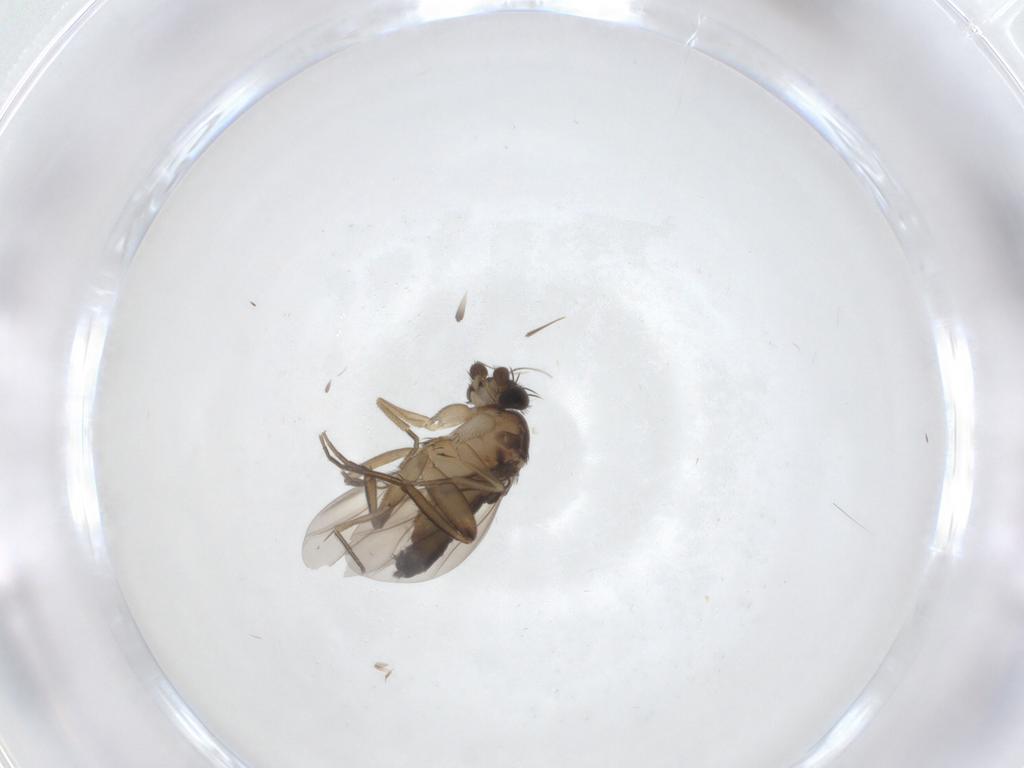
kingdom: Animalia
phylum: Arthropoda
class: Insecta
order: Diptera
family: Phoridae
